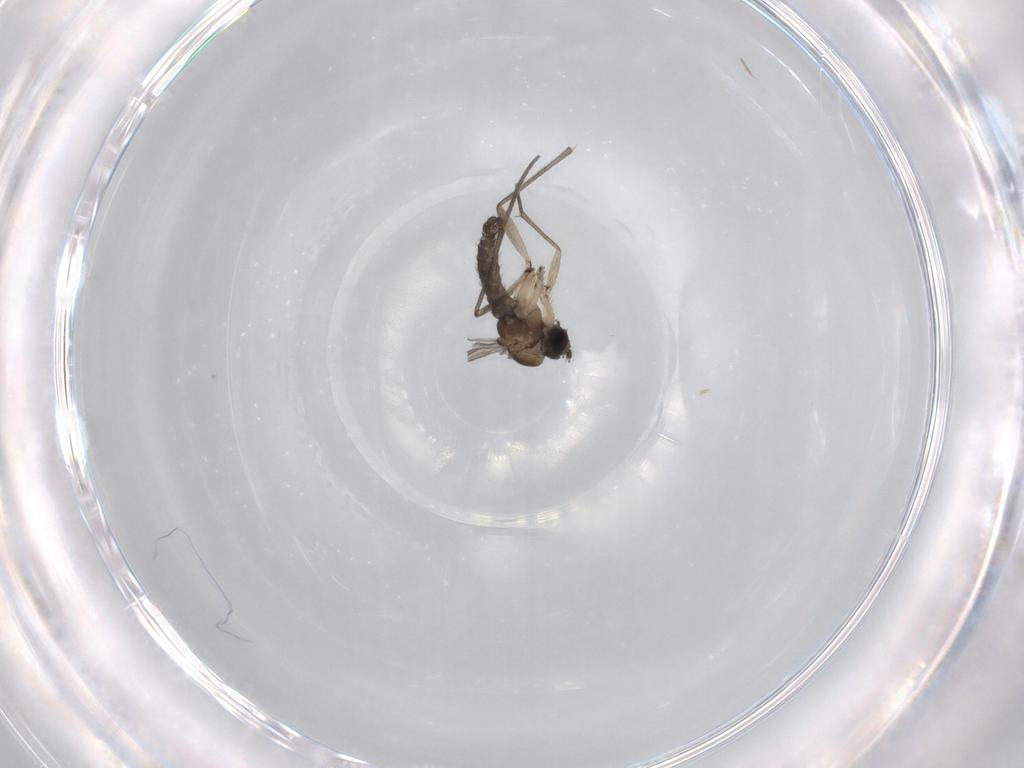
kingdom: Animalia
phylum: Arthropoda
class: Insecta
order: Diptera
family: Sciaridae
